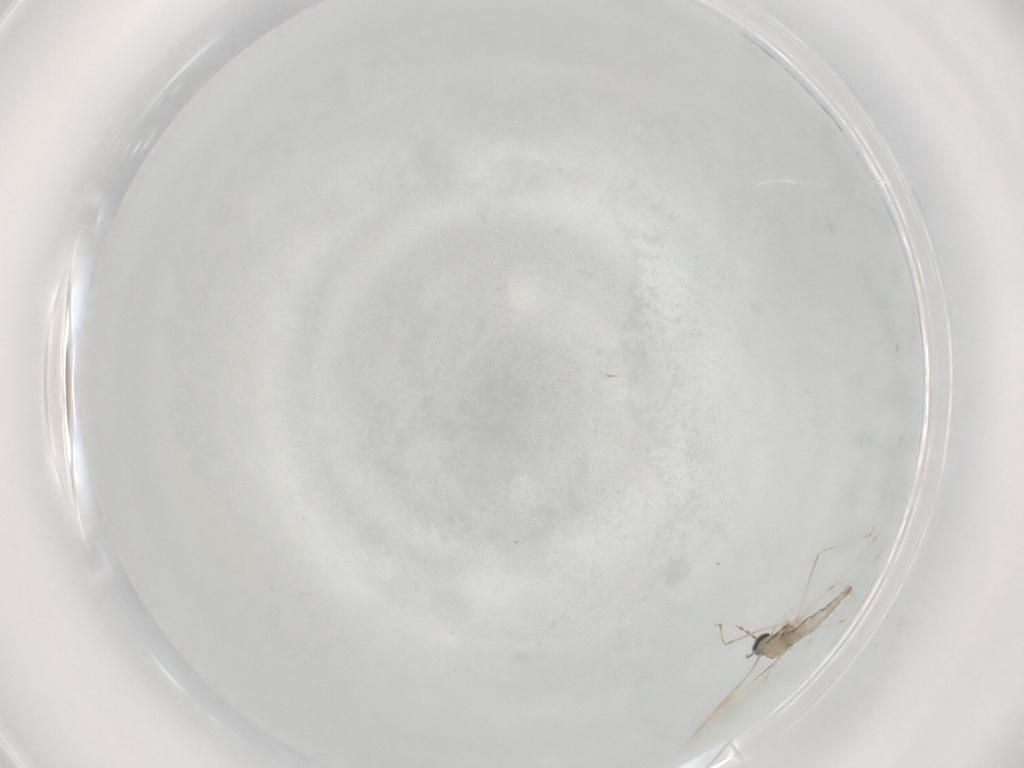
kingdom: Animalia
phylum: Arthropoda
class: Insecta
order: Diptera
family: Cecidomyiidae
